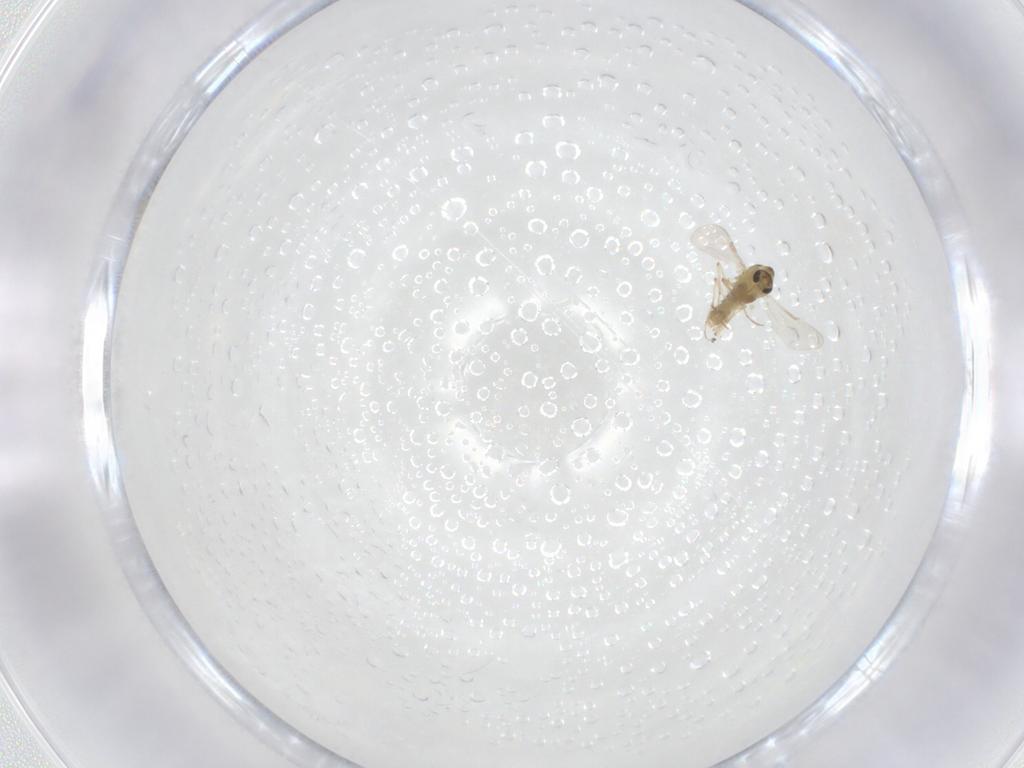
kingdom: Animalia
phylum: Arthropoda
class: Insecta
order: Diptera
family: Chironomidae
